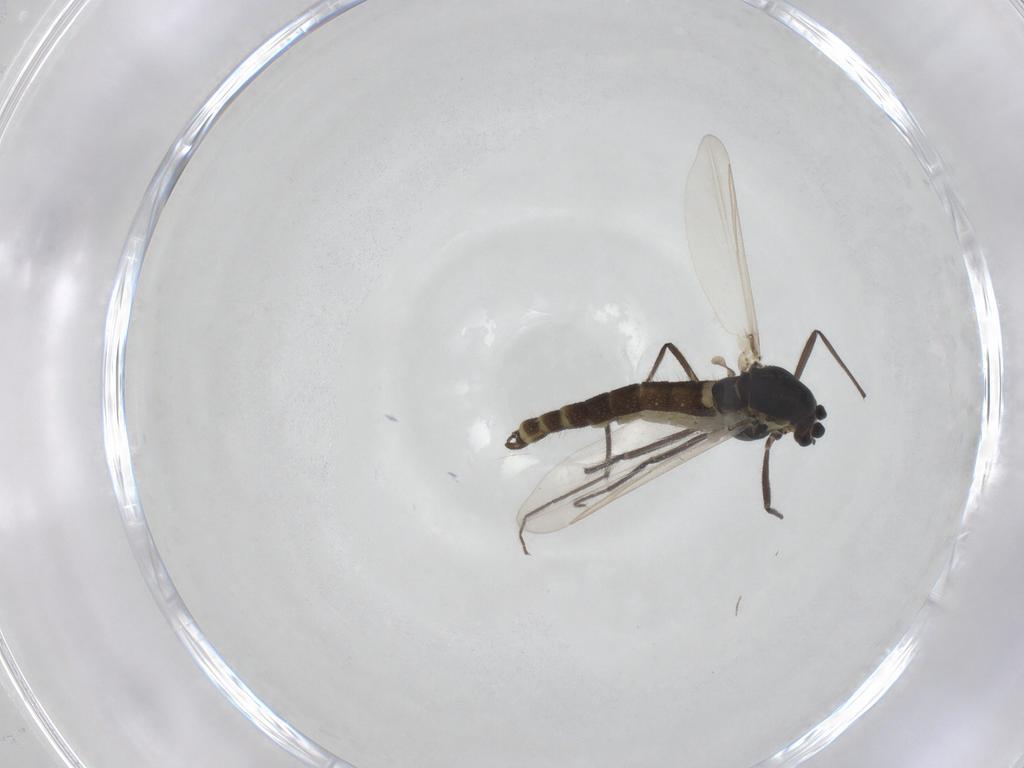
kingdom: Animalia
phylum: Arthropoda
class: Insecta
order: Diptera
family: Chironomidae
